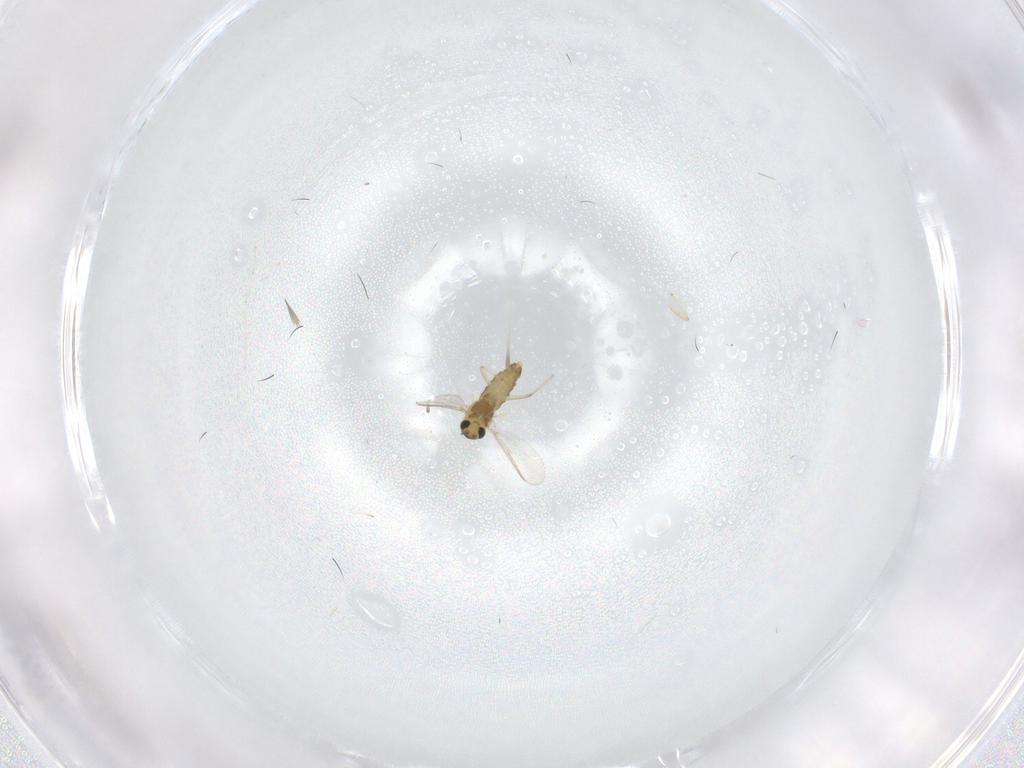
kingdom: Animalia
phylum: Arthropoda
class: Insecta
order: Diptera
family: Cecidomyiidae
